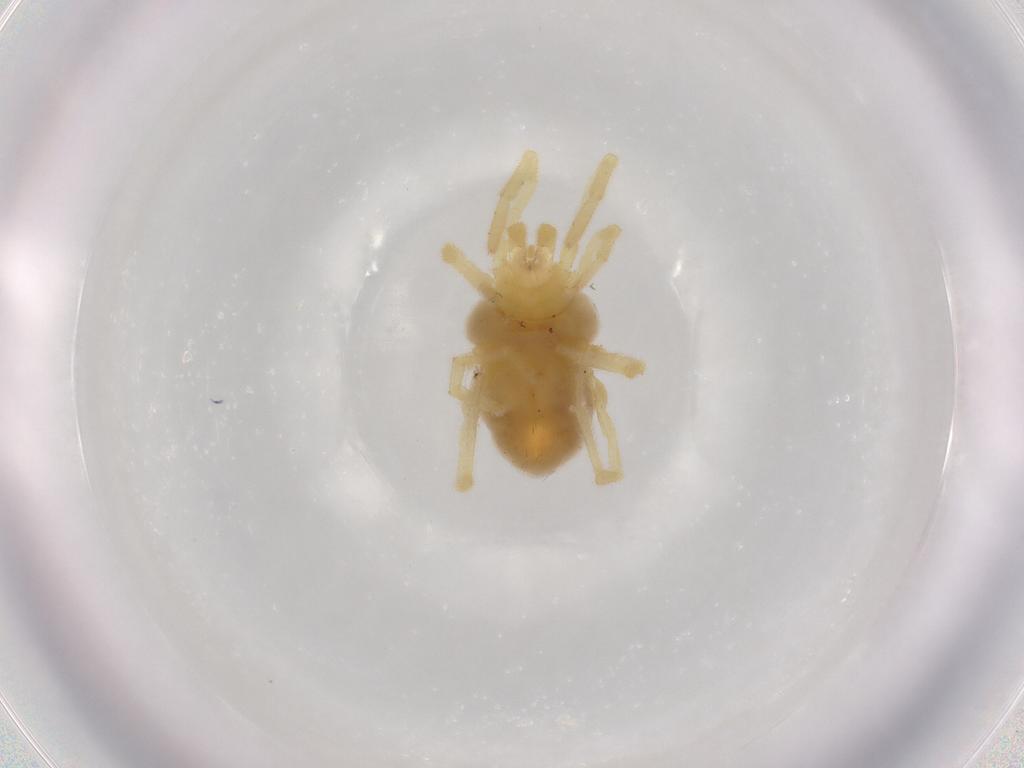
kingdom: Animalia
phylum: Arthropoda
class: Arachnida
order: Trombidiformes
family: Trombidiidae
